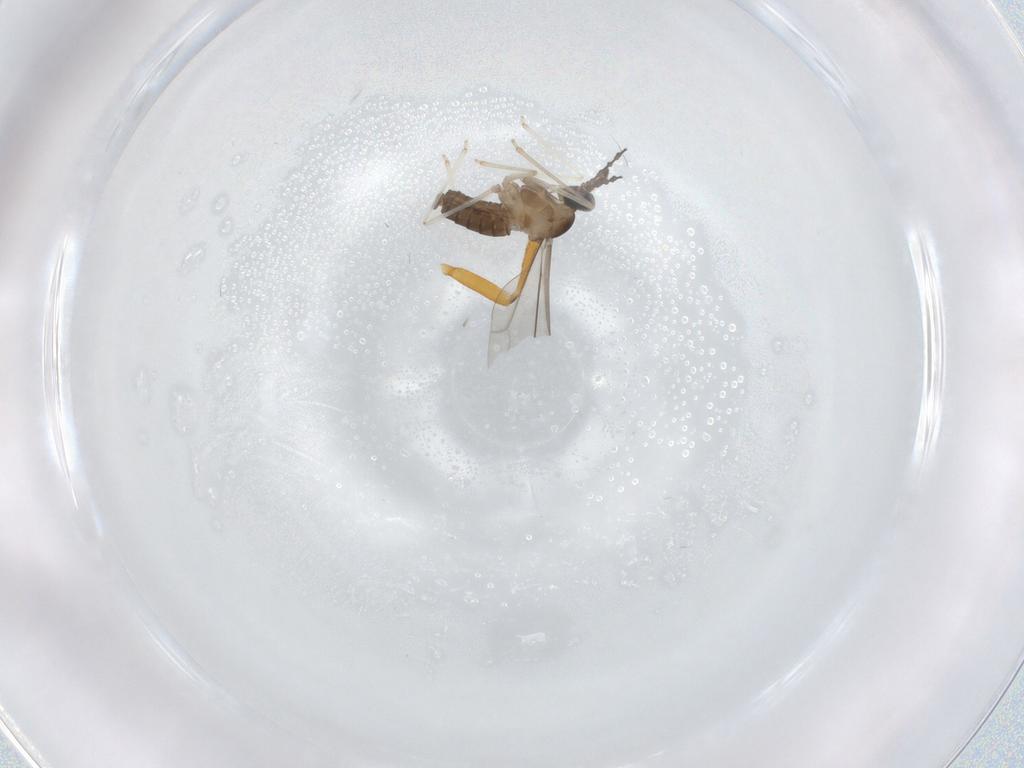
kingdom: Animalia
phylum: Arthropoda
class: Insecta
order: Diptera
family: Cecidomyiidae
